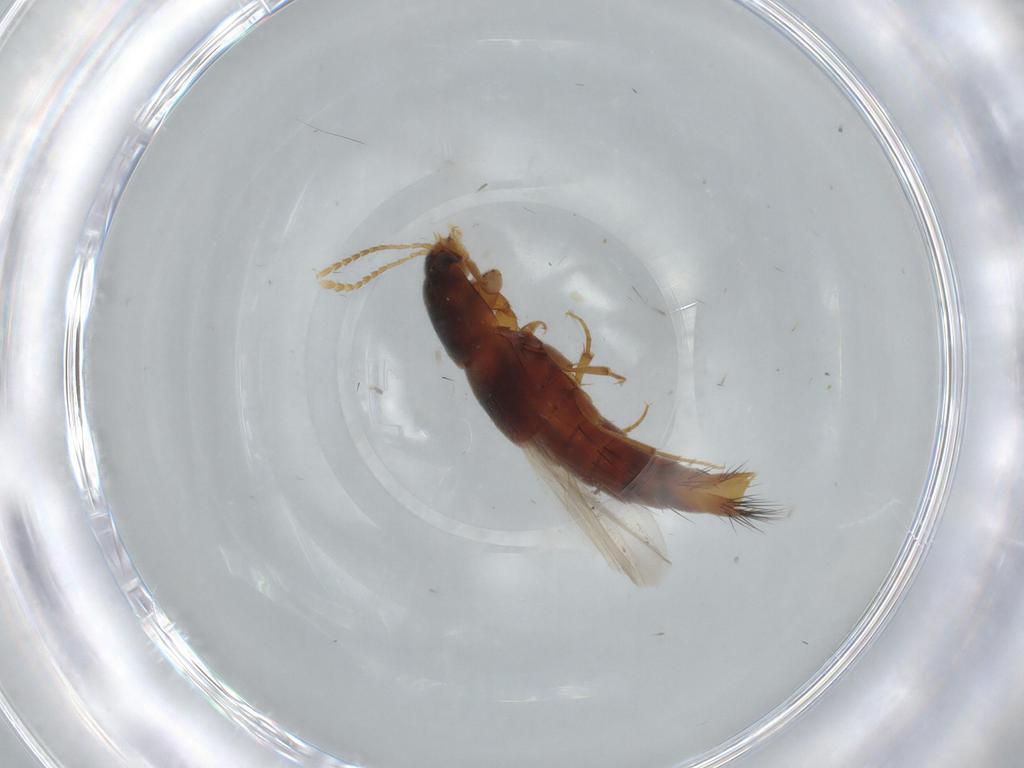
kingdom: Animalia
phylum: Arthropoda
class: Insecta
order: Coleoptera
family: Staphylinidae
